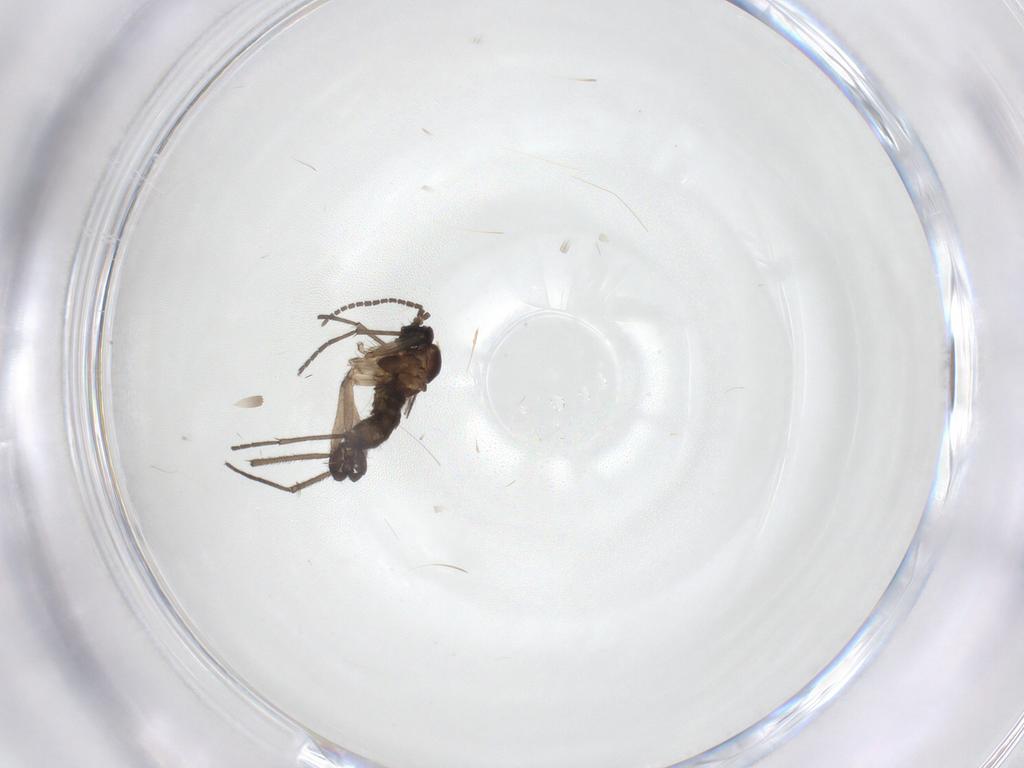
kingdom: Animalia
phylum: Arthropoda
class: Insecta
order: Diptera
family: Sciaridae
